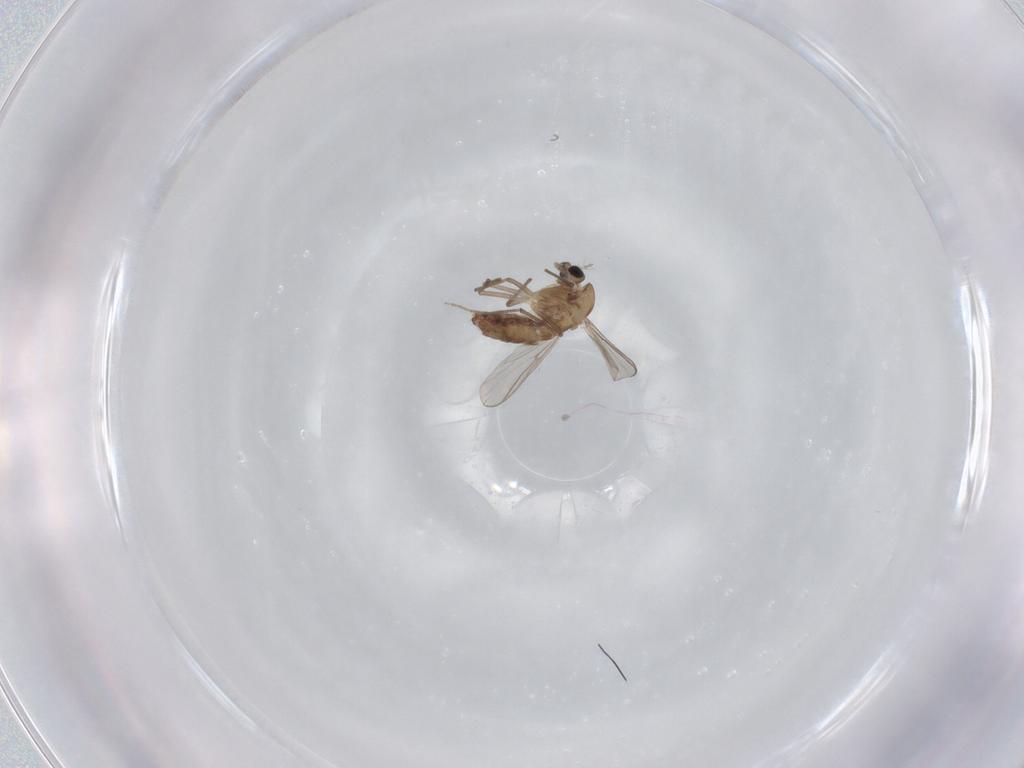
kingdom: Animalia
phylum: Arthropoda
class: Insecta
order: Diptera
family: Chironomidae
